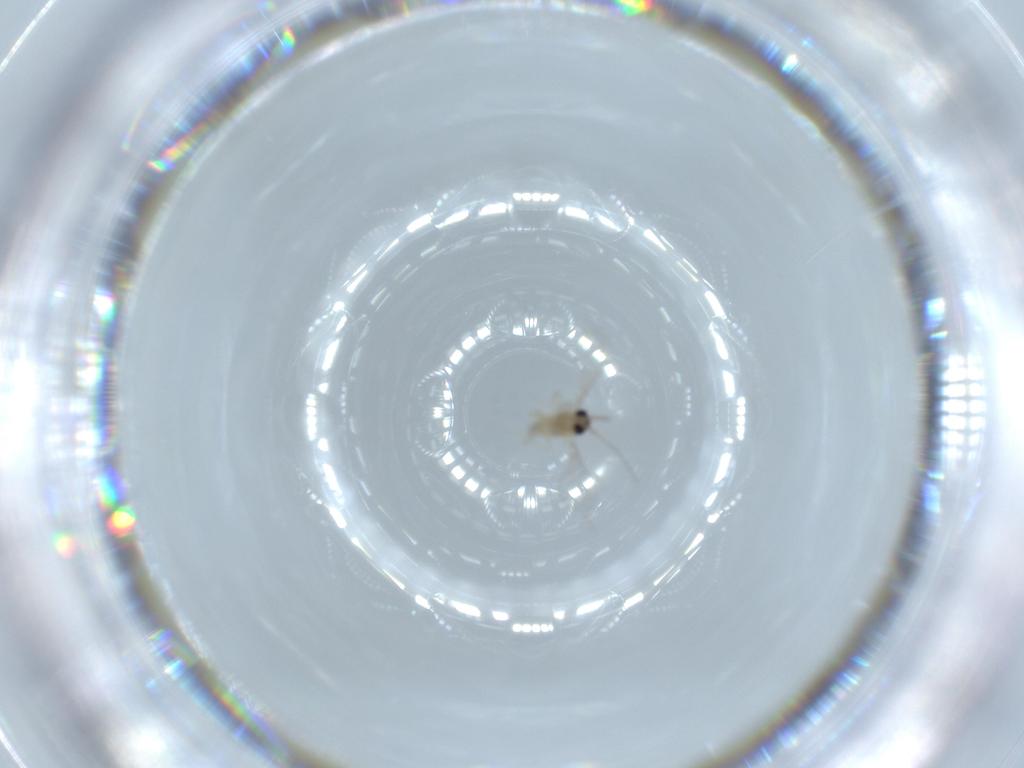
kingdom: Animalia
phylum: Arthropoda
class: Insecta
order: Diptera
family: Cecidomyiidae
